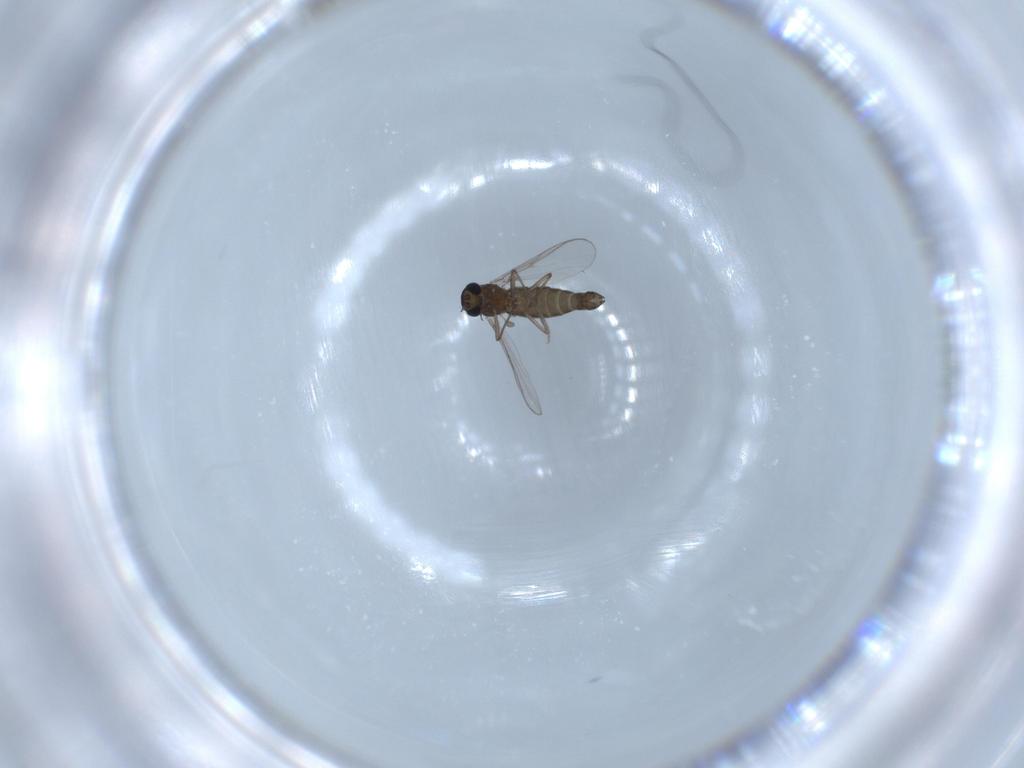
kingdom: Animalia
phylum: Arthropoda
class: Insecta
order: Diptera
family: Chironomidae
